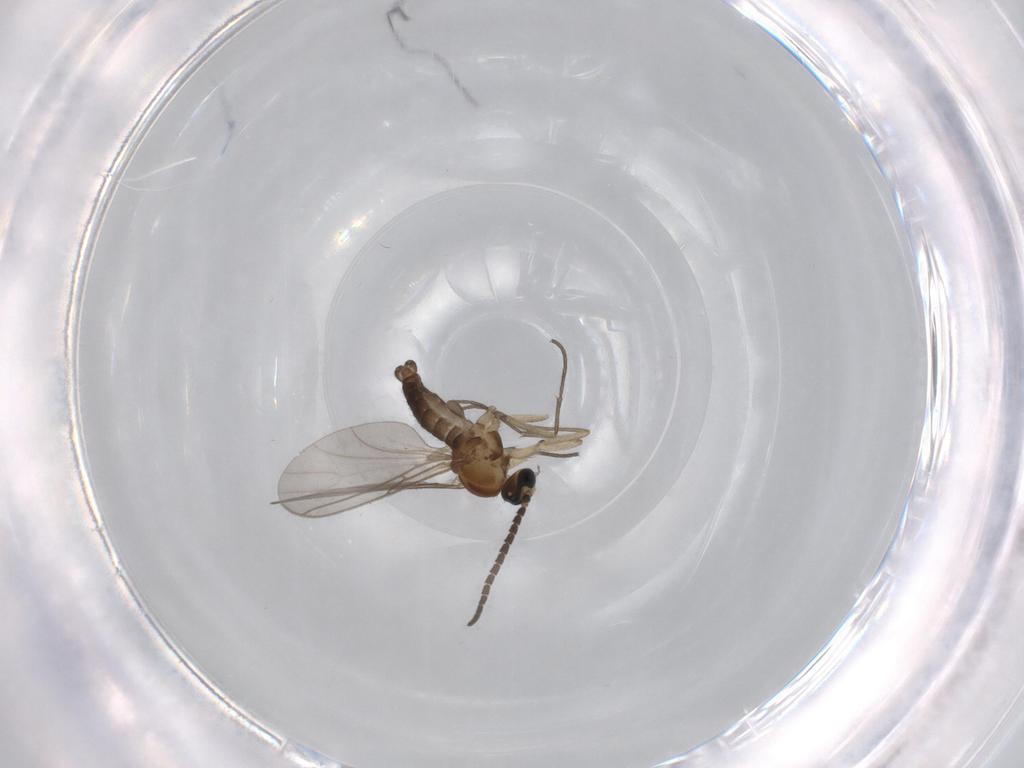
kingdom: Animalia
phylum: Arthropoda
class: Insecta
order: Diptera
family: Sciaridae
